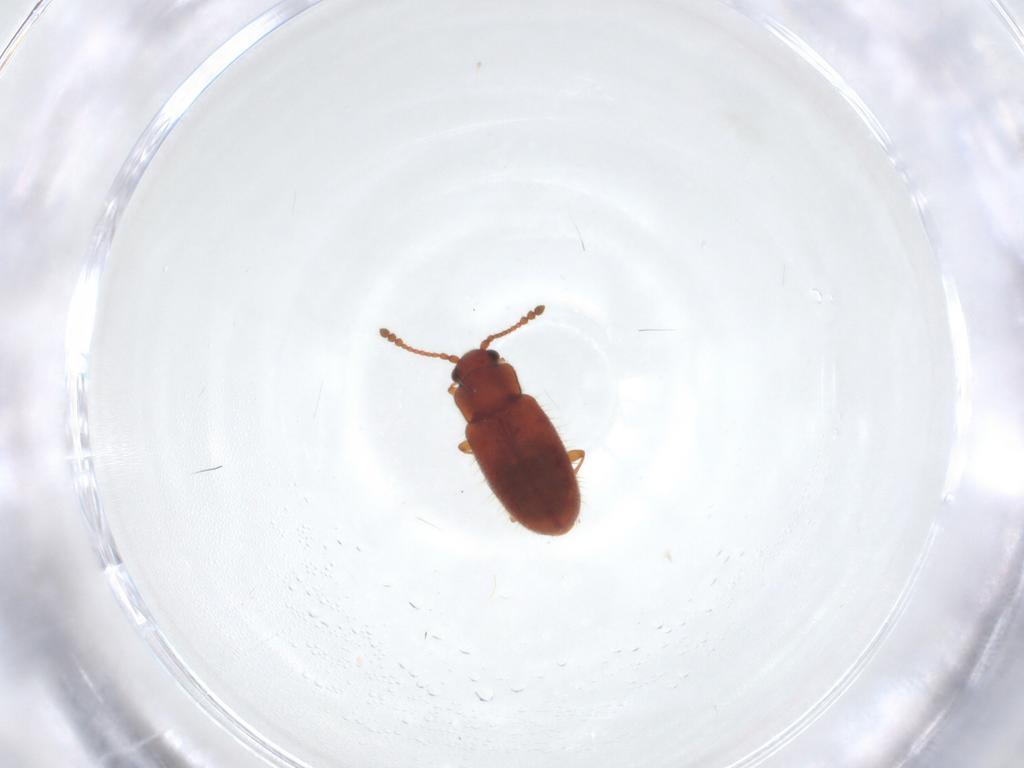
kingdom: Animalia
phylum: Arthropoda
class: Insecta
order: Coleoptera
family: Cryptophagidae
